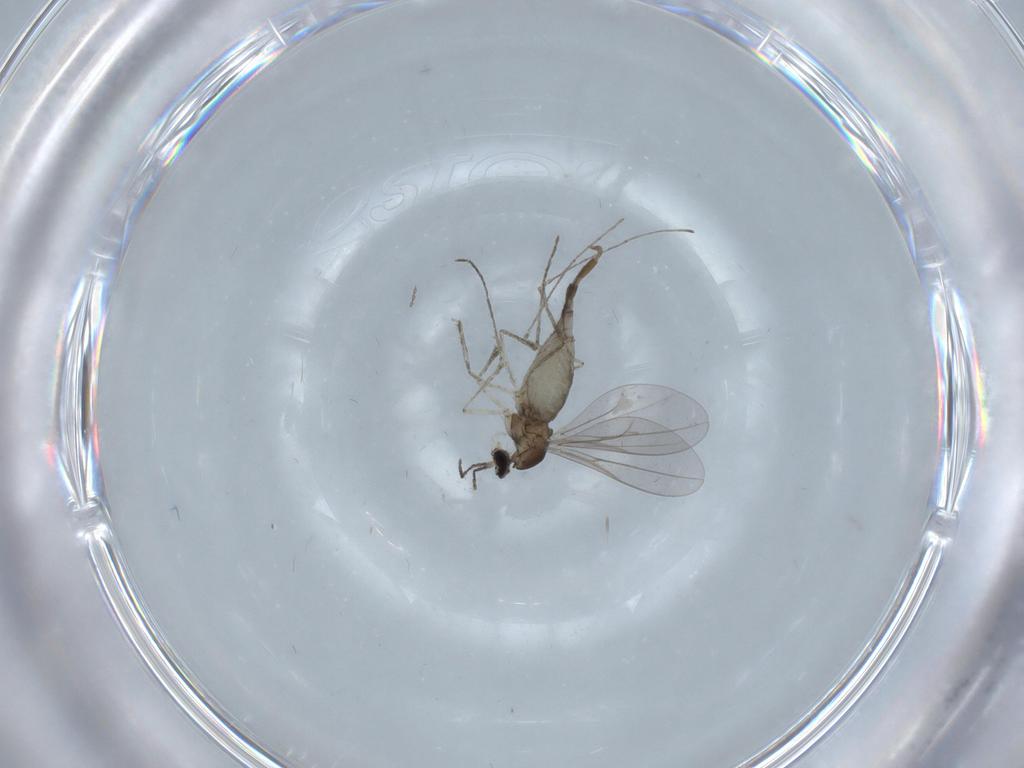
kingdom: Animalia
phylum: Arthropoda
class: Insecta
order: Diptera
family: Cecidomyiidae
